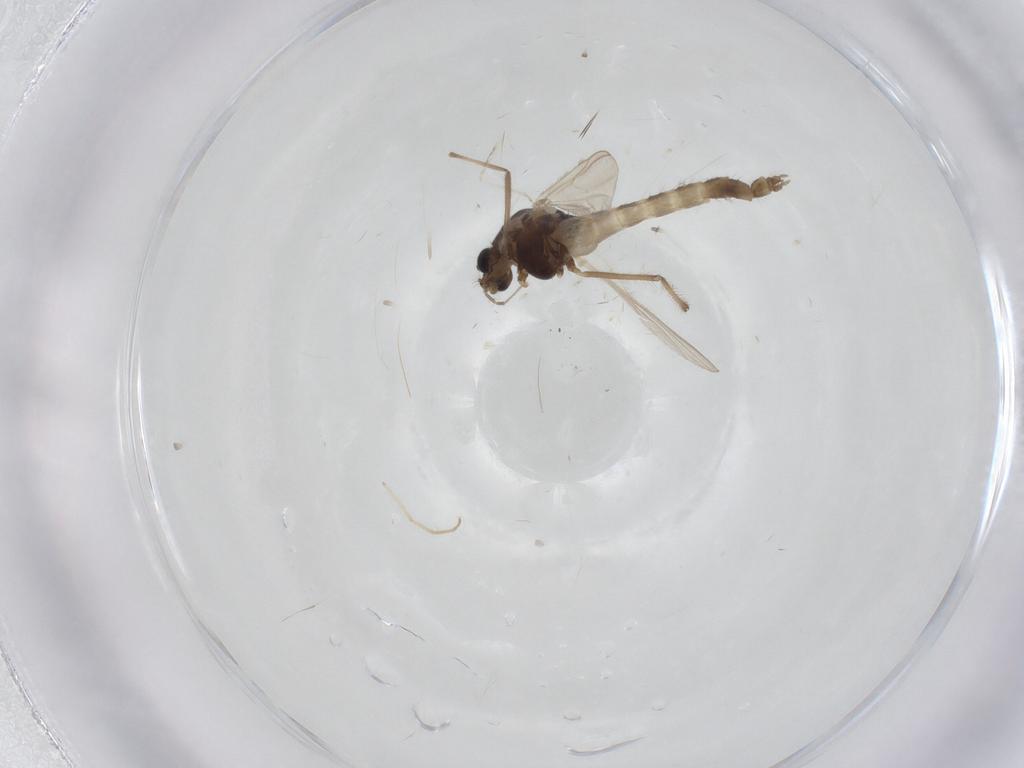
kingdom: Animalia
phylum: Arthropoda
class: Insecta
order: Diptera
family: Chironomidae
